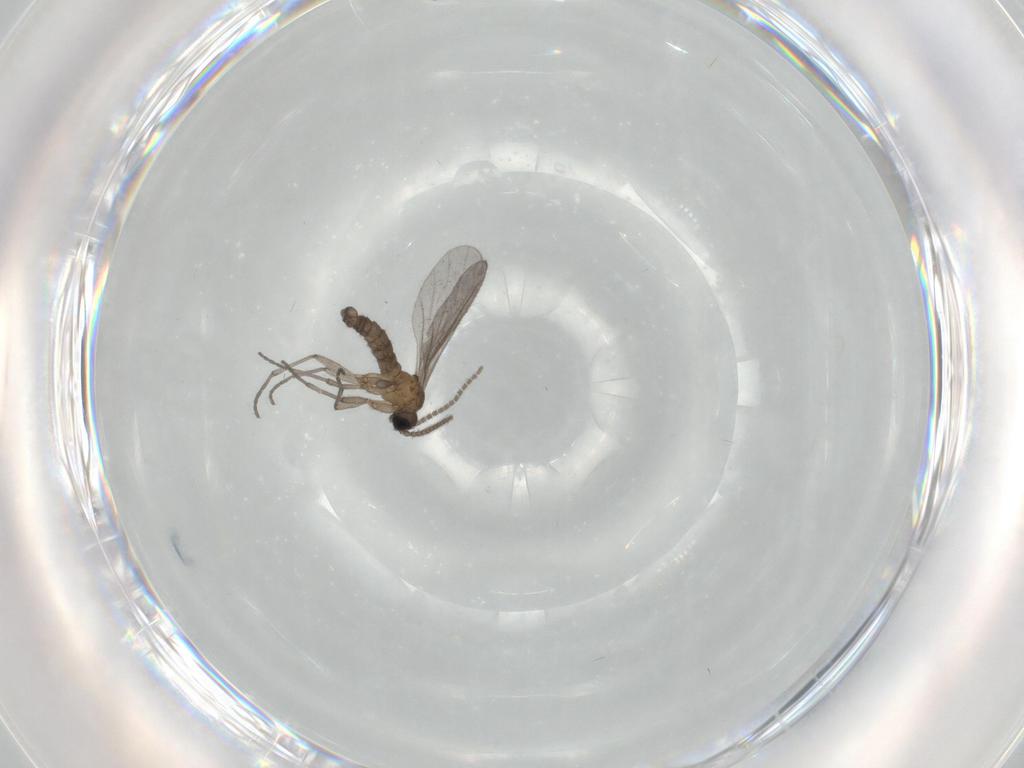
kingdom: Animalia
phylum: Arthropoda
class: Insecta
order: Diptera
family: Sciaridae
